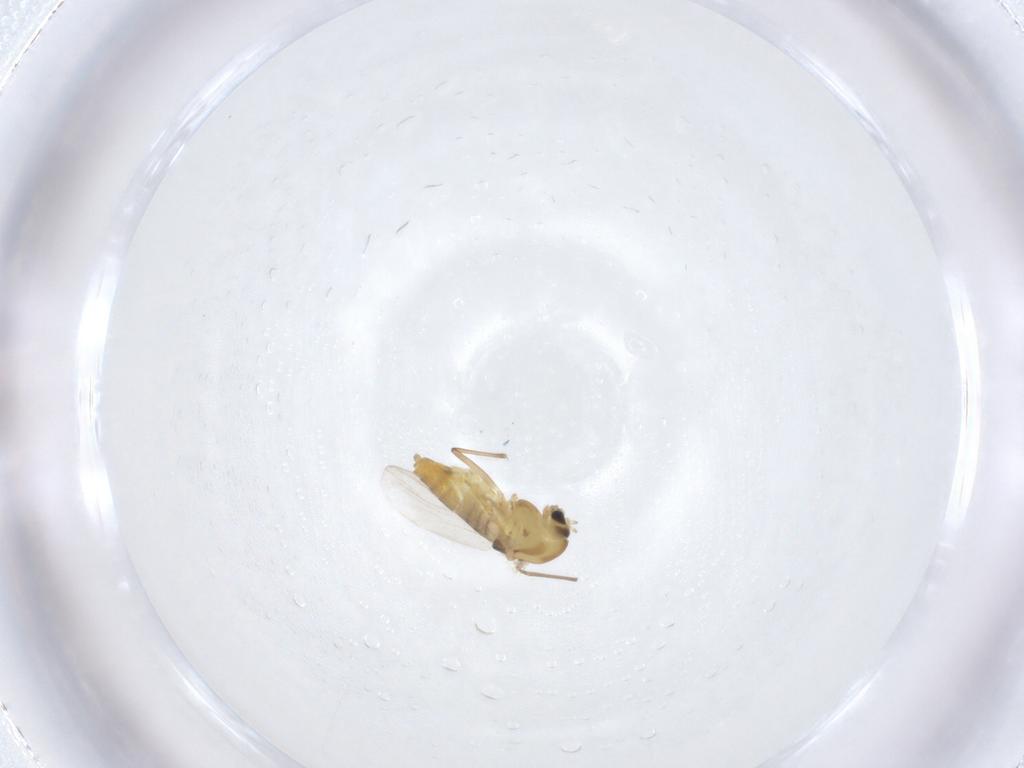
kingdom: Animalia
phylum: Arthropoda
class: Insecta
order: Diptera
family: Chironomidae
